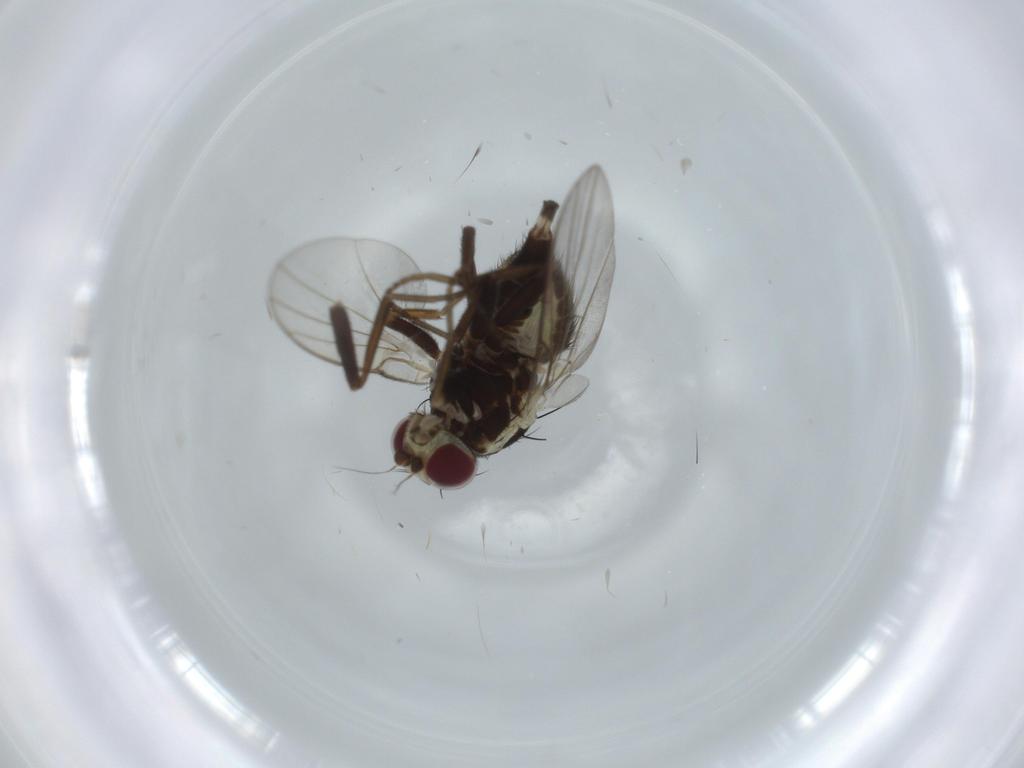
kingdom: Animalia
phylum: Arthropoda
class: Insecta
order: Diptera
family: Agromyzidae
